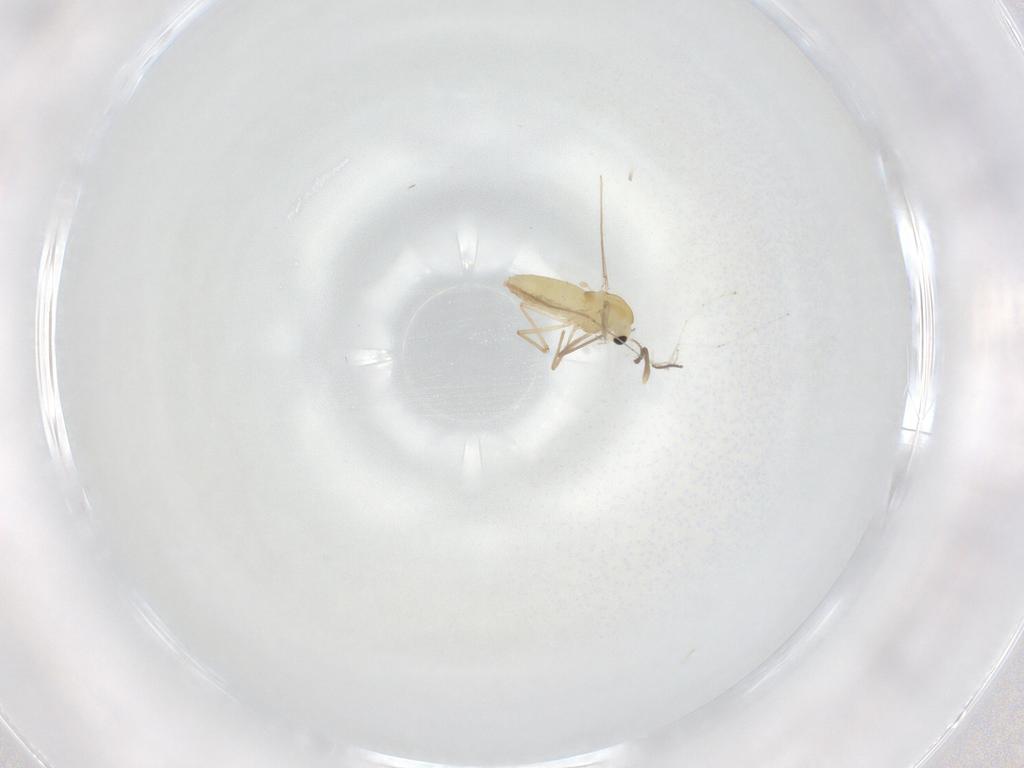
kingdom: Animalia
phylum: Arthropoda
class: Insecta
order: Diptera
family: Chironomidae
